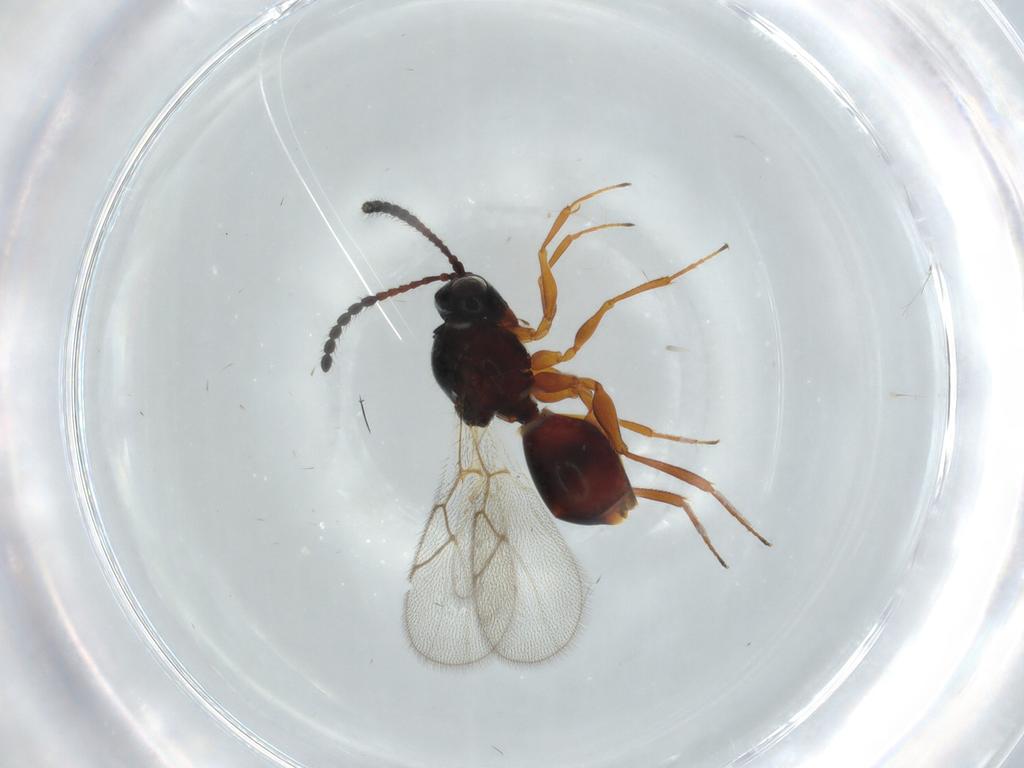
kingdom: Animalia
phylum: Arthropoda
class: Insecta
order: Hymenoptera
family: Figitidae
